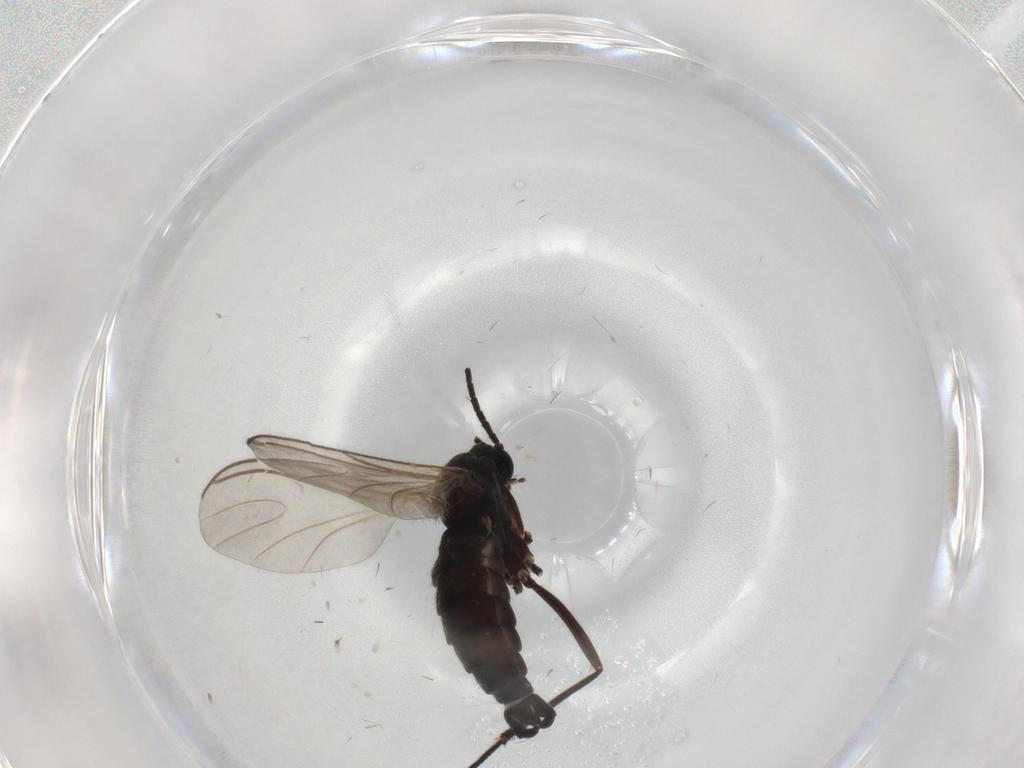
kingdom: Animalia
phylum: Arthropoda
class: Insecta
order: Diptera
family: Sciaridae
